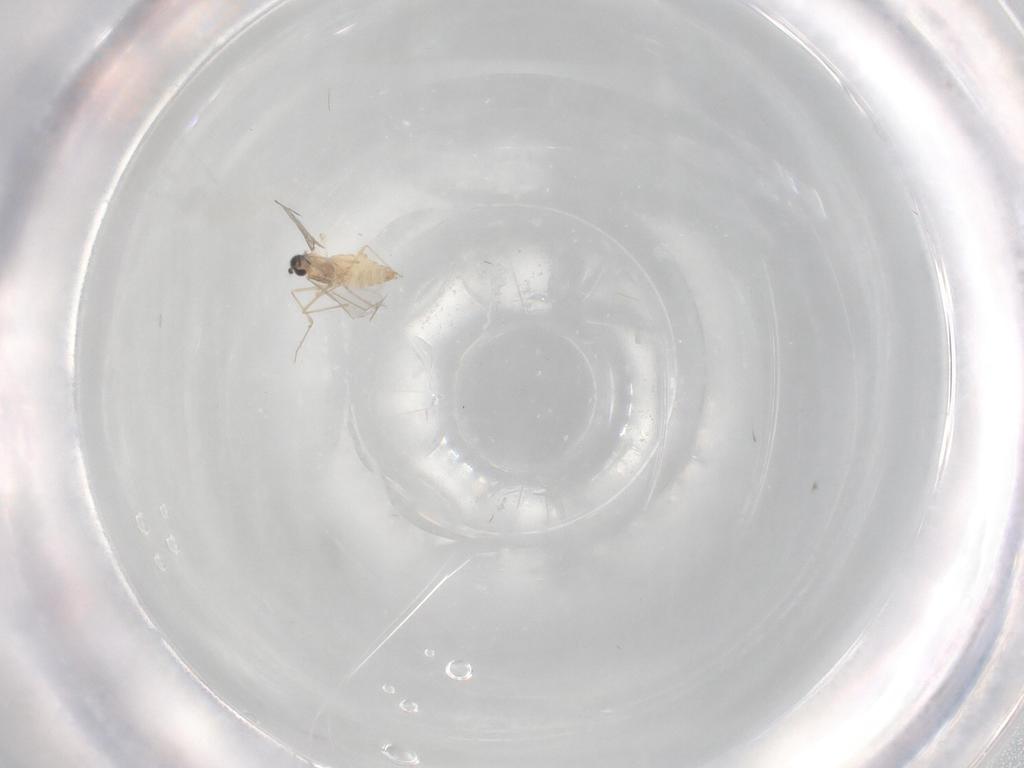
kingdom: Animalia
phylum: Arthropoda
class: Insecta
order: Diptera
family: Cecidomyiidae
